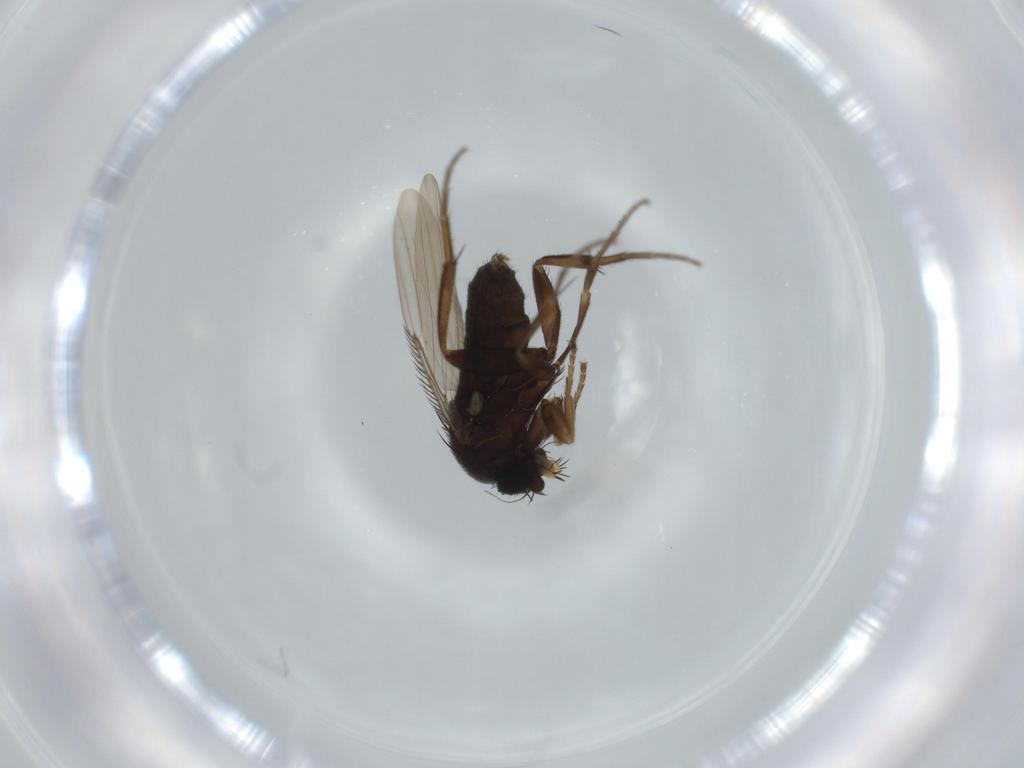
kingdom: Animalia
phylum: Arthropoda
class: Insecta
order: Diptera
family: Phoridae
